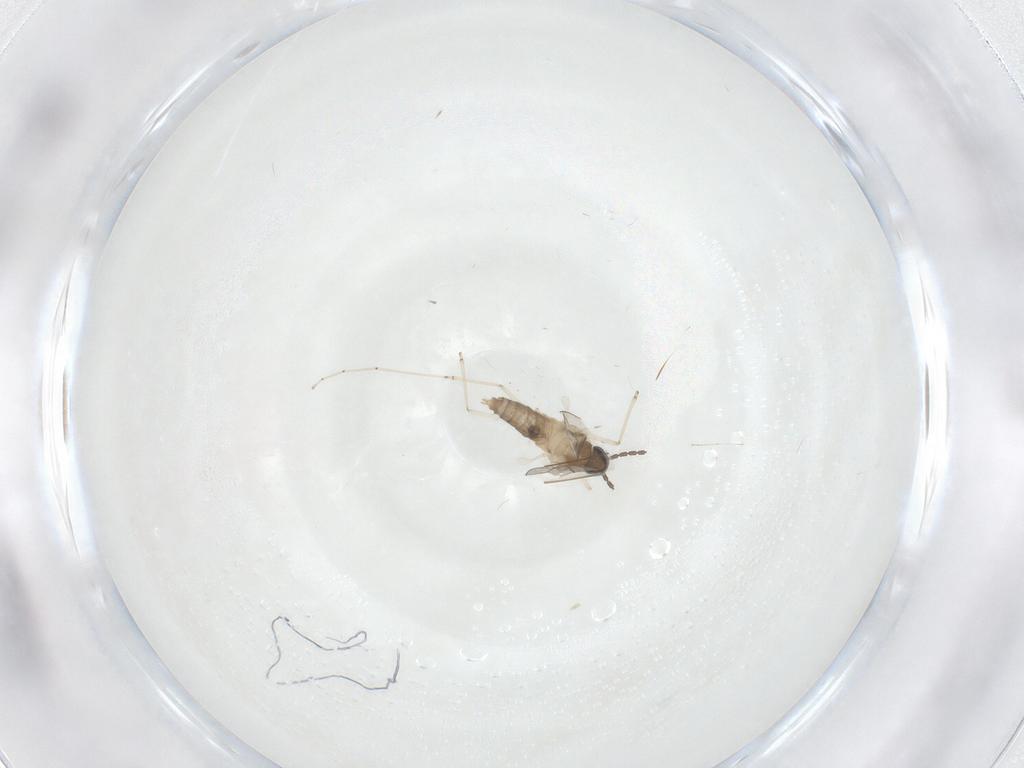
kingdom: Animalia
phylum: Arthropoda
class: Insecta
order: Diptera
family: Cecidomyiidae
